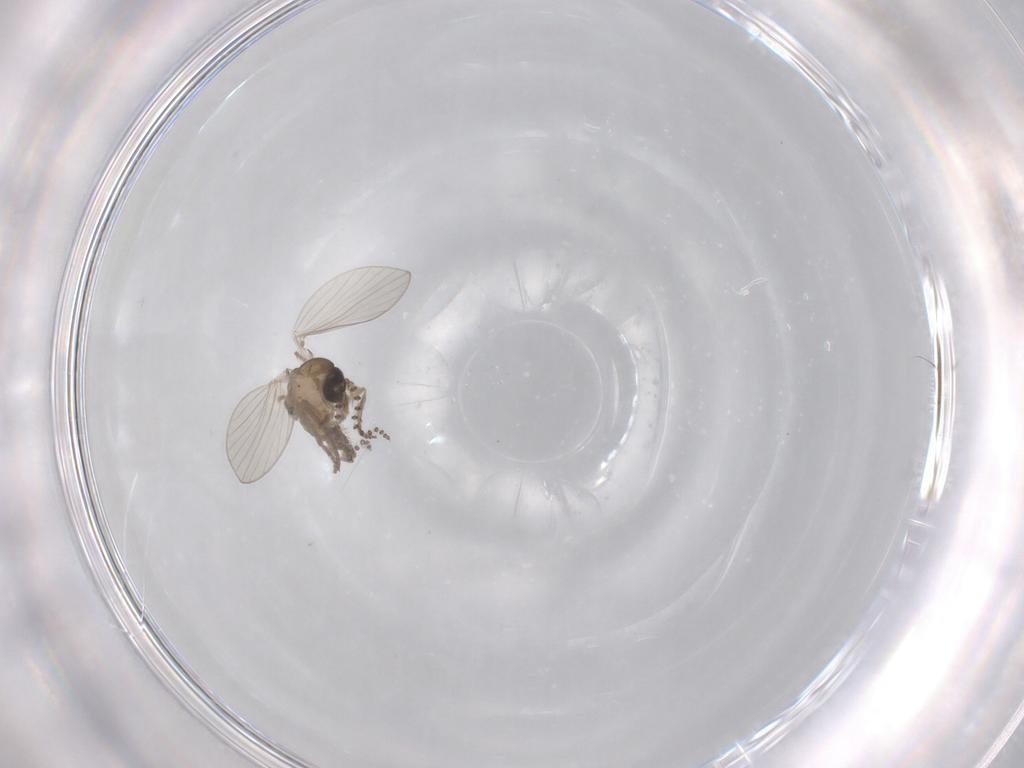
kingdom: Animalia
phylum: Arthropoda
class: Insecta
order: Diptera
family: Psychodidae
